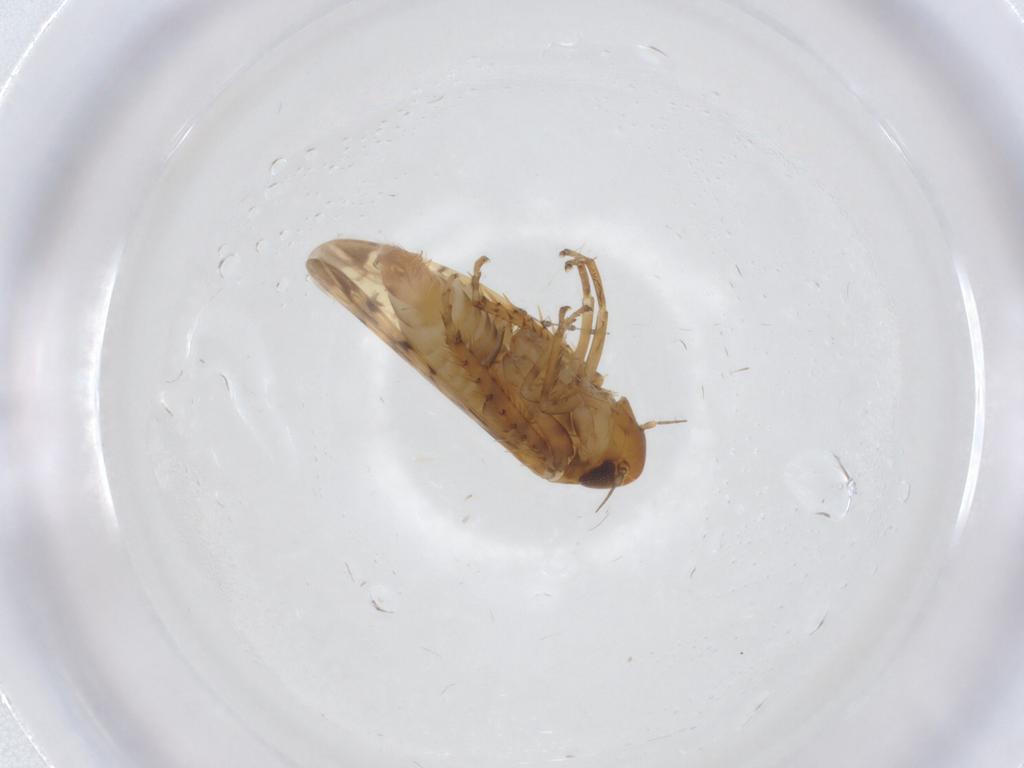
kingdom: Animalia
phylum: Arthropoda
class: Insecta
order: Hemiptera
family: Cicadellidae
